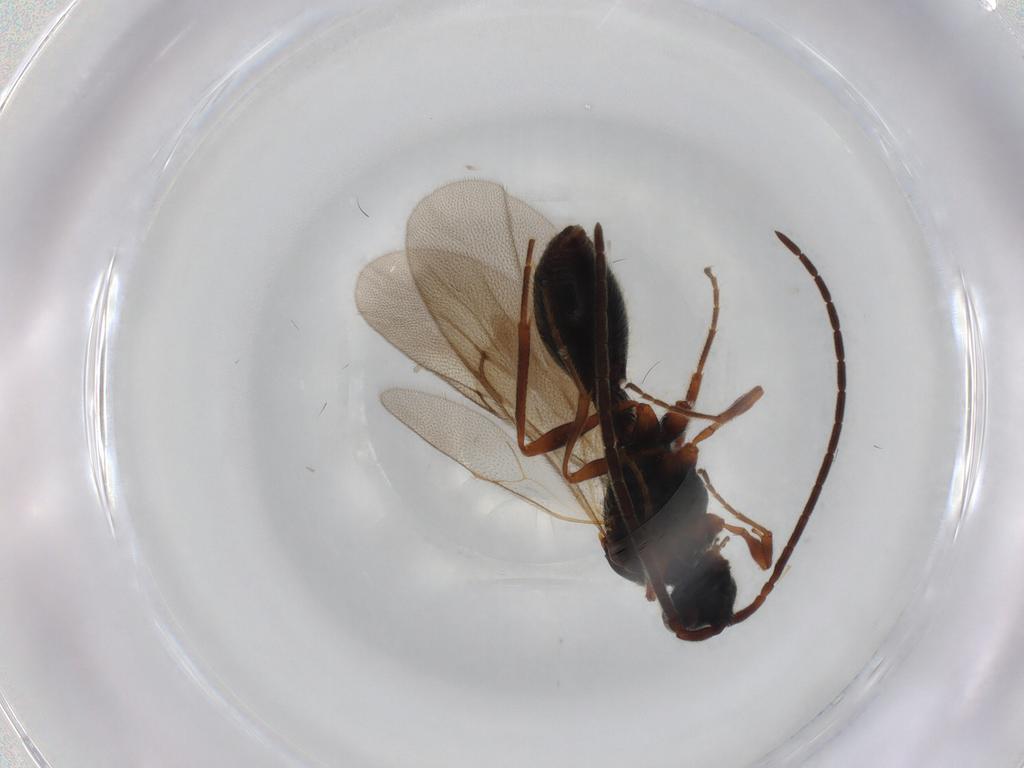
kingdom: Animalia
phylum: Arthropoda
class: Insecta
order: Hymenoptera
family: Diapriidae
